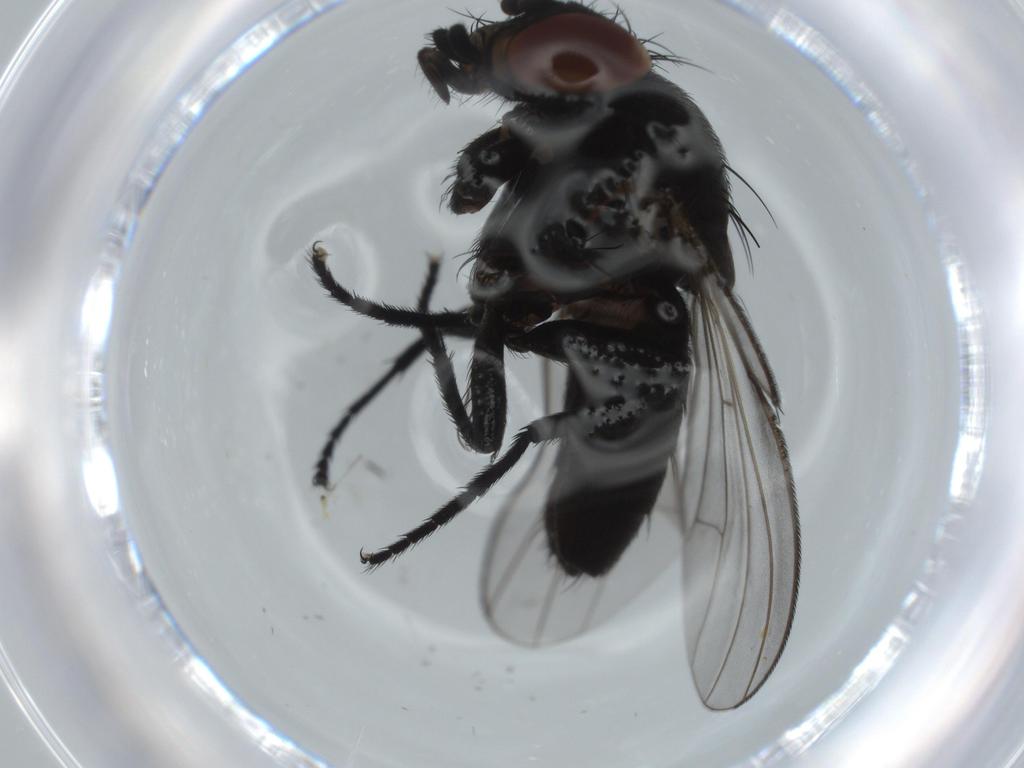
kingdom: Animalia
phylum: Arthropoda
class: Insecta
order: Diptera
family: Milichiidae
